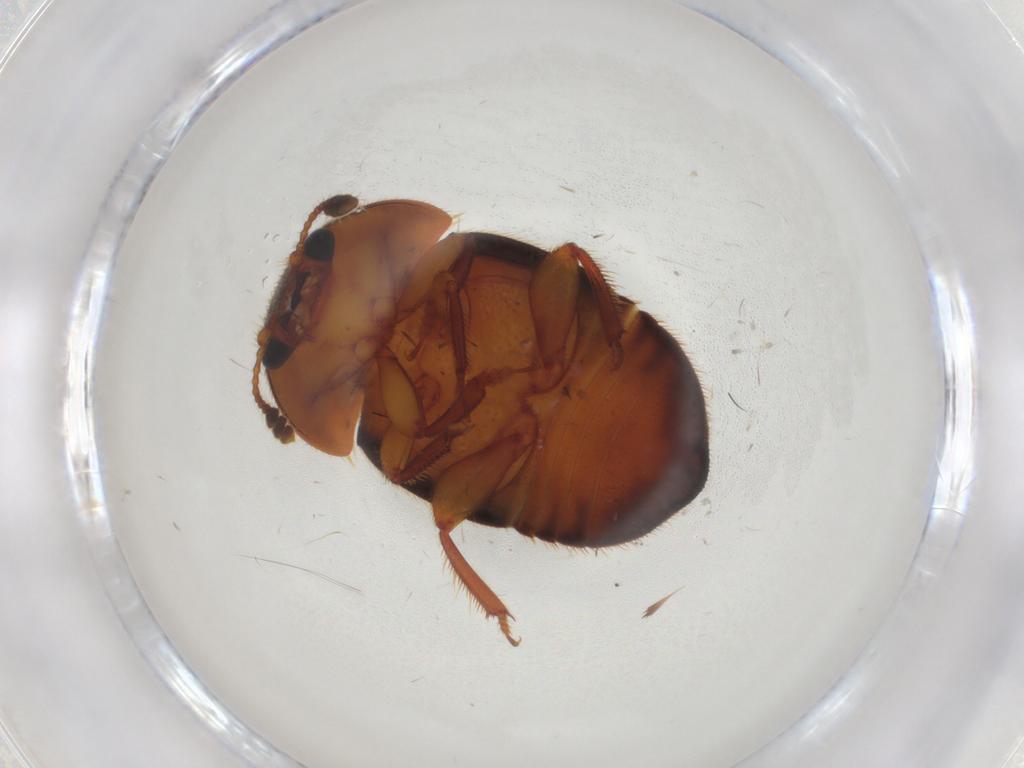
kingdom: Animalia
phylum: Arthropoda
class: Insecta
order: Coleoptera
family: Nitidulidae
